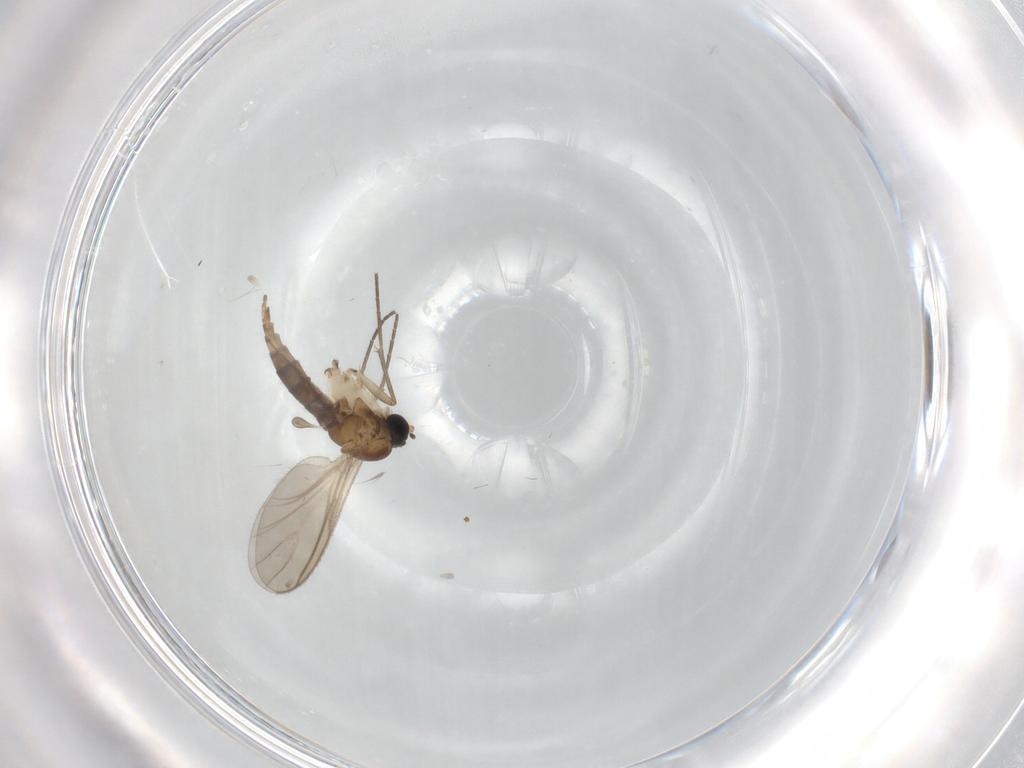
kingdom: Animalia
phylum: Arthropoda
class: Insecta
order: Diptera
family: Sciaridae
